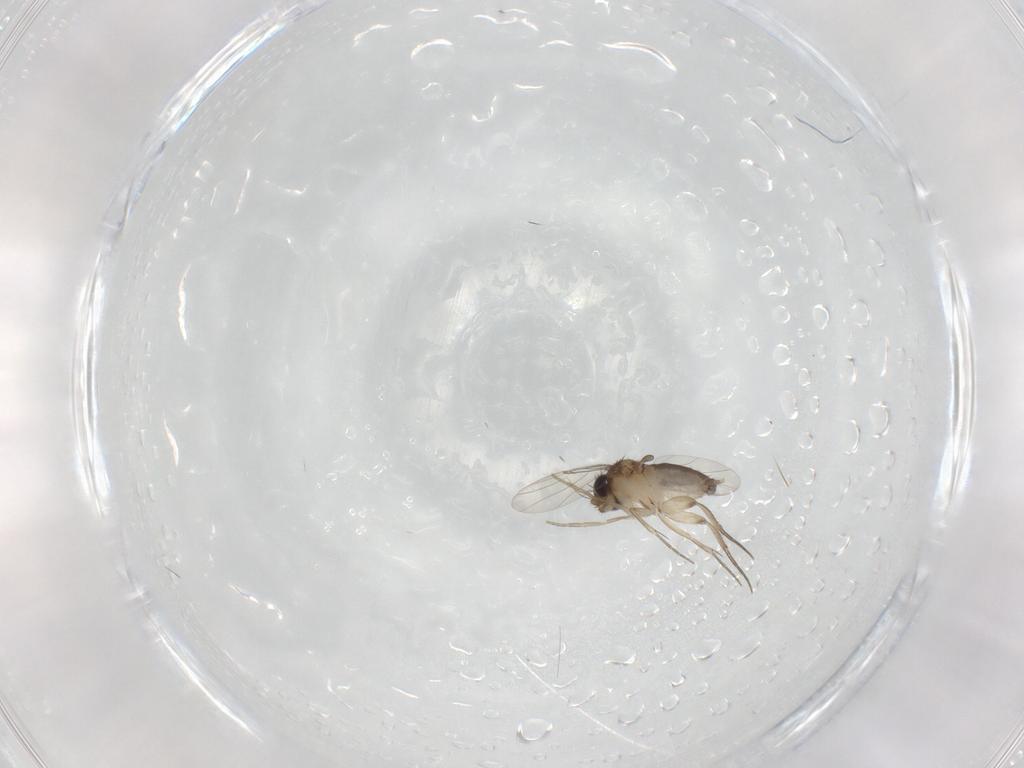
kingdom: Animalia
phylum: Arthropoda
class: Insecta
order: Diptera
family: Phoridae
